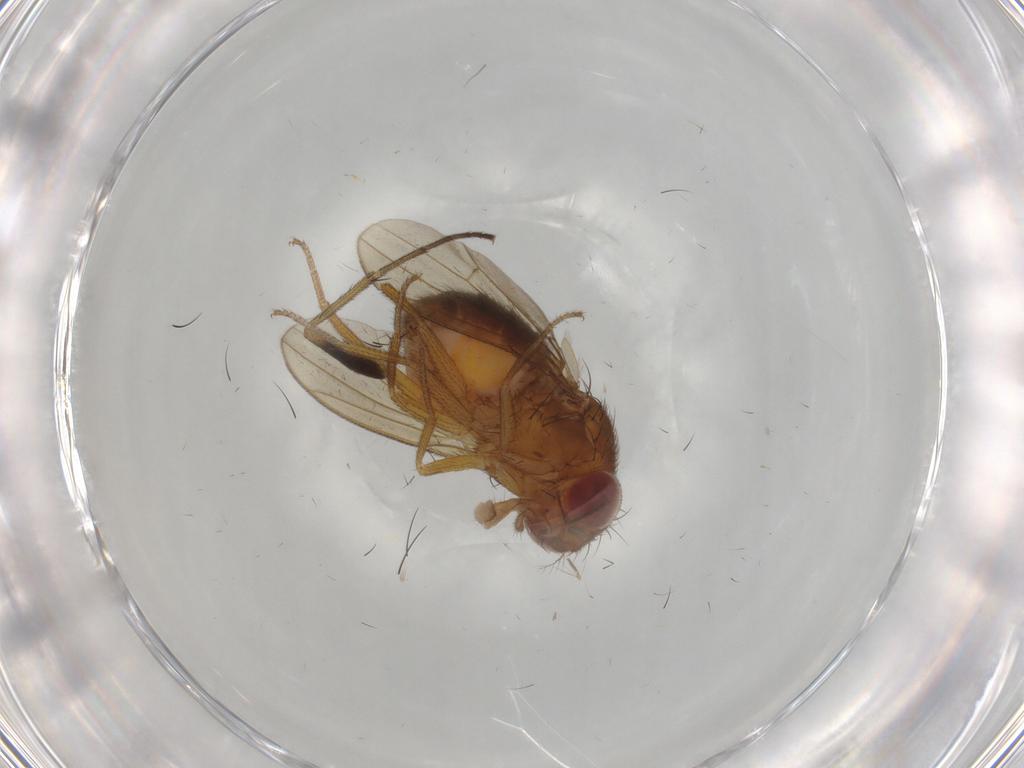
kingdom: Animalia
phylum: Arthropoda
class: Insecta
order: Diptera
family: Drosophilidae
